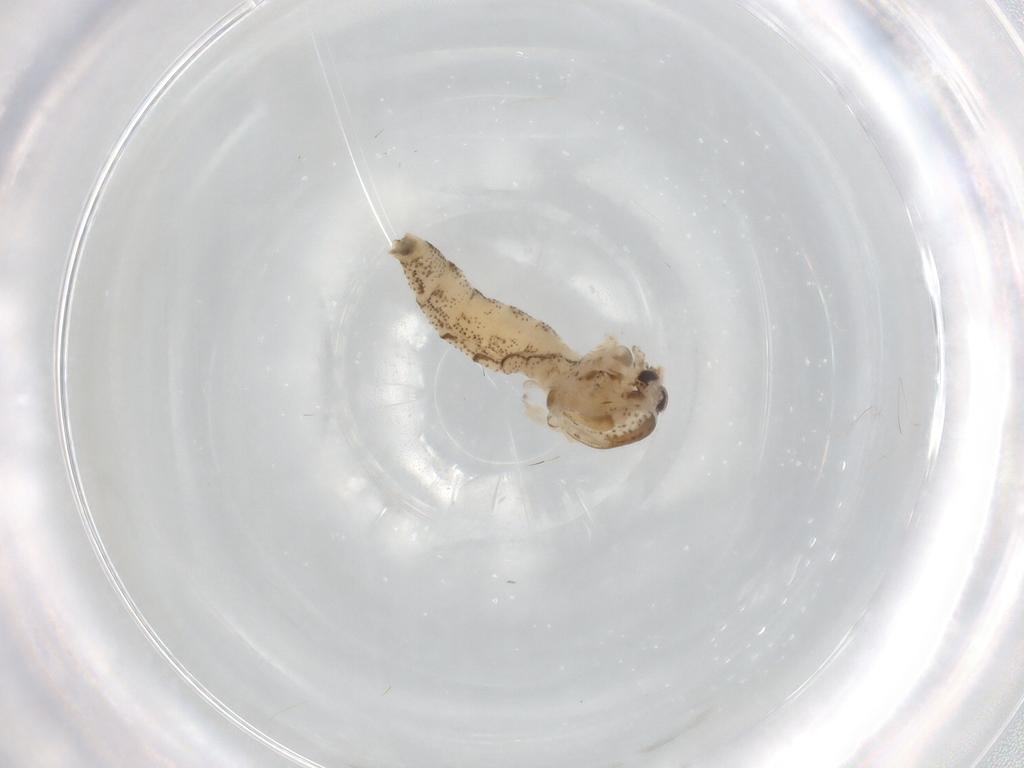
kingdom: Animalia
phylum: Arthropoda
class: Insecta
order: Diptera
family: Chaoboridae
